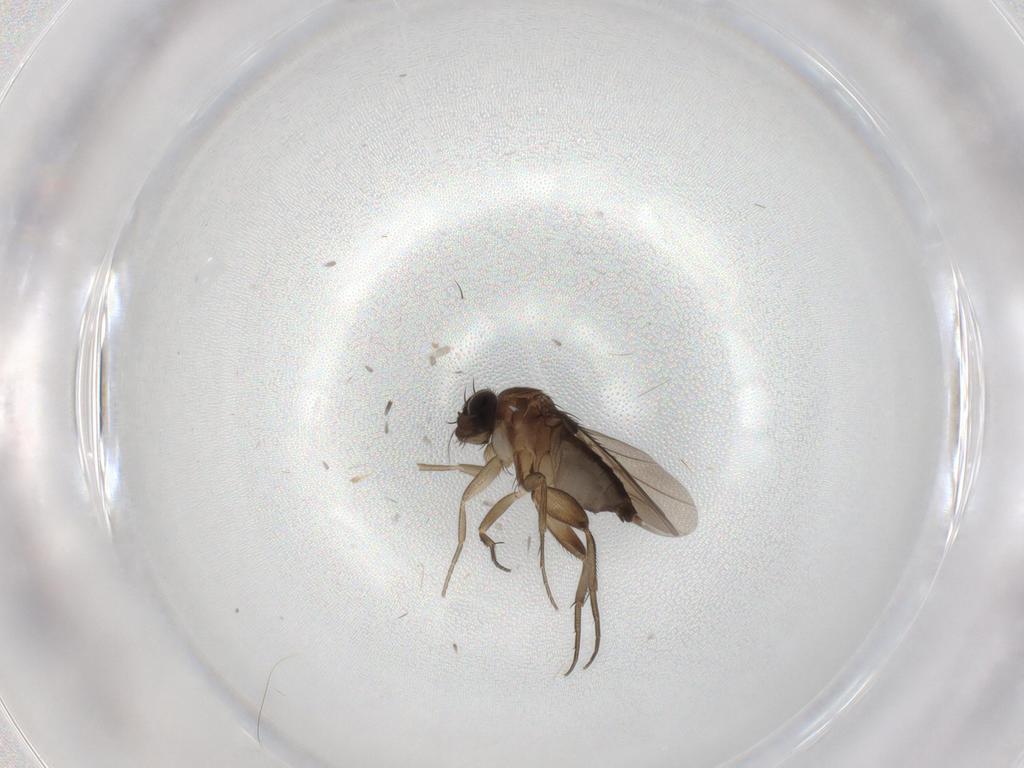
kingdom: Animalia
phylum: Arthropoda
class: Insecta
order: Diptera
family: Phoridae
